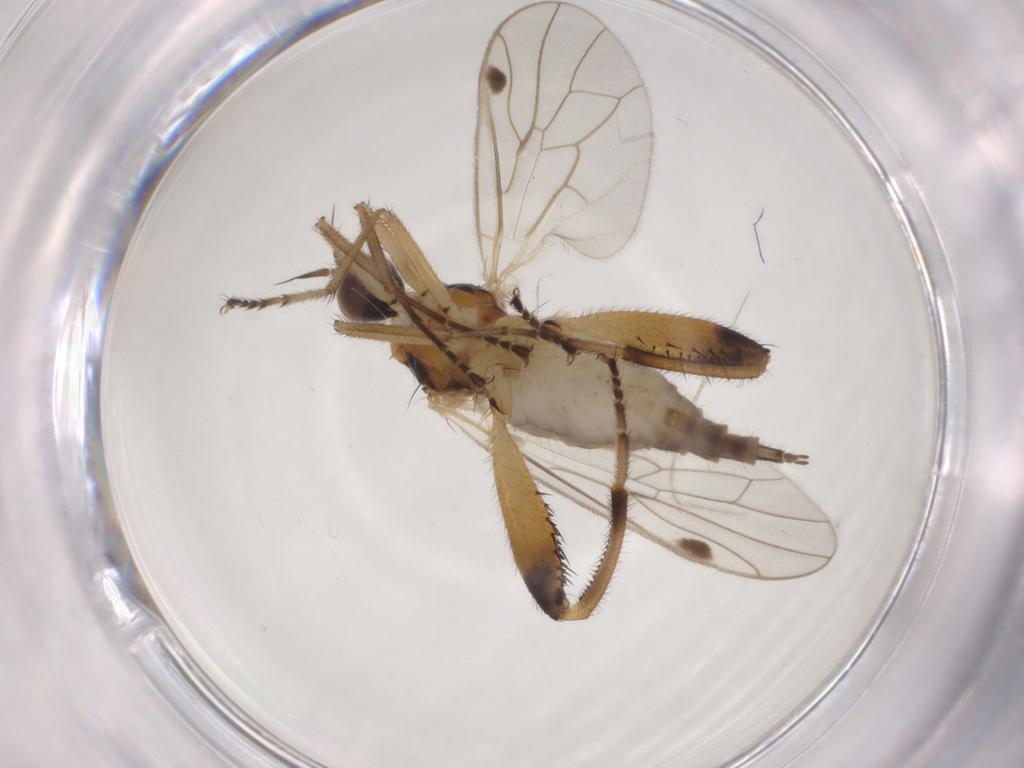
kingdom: Animalia
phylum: Arthropoda
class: Insecta
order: Diptera
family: Hybotidae
